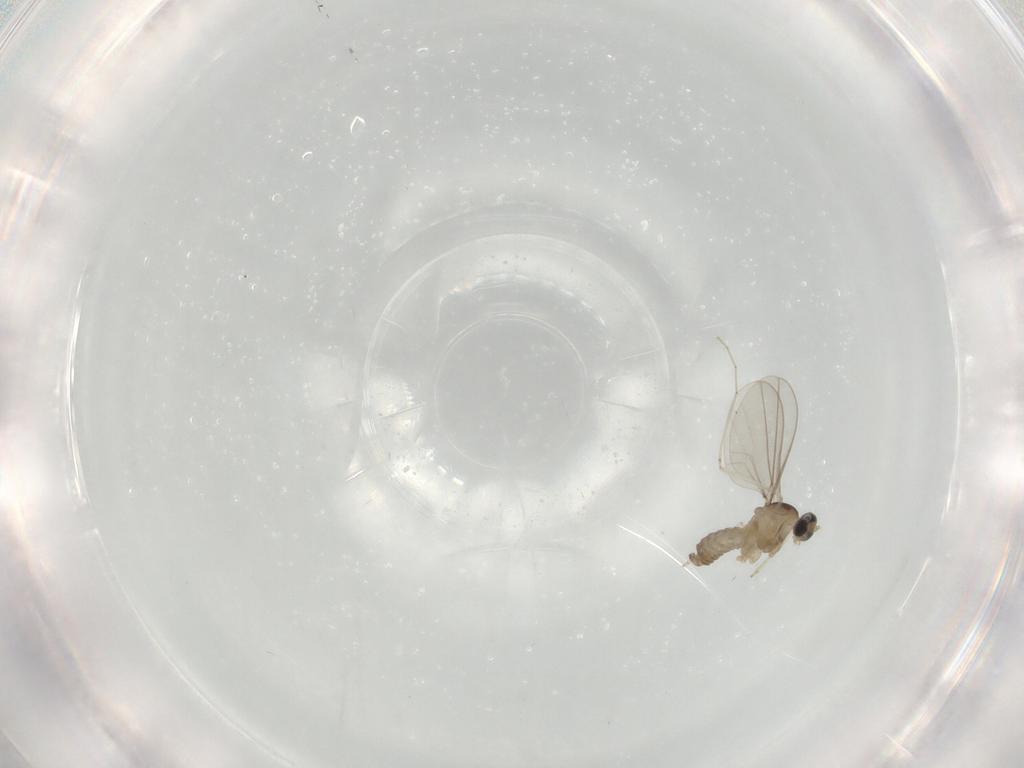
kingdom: Animalia
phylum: Arthropoda
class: Insecta
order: Diptera
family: Cecidomyiidae
